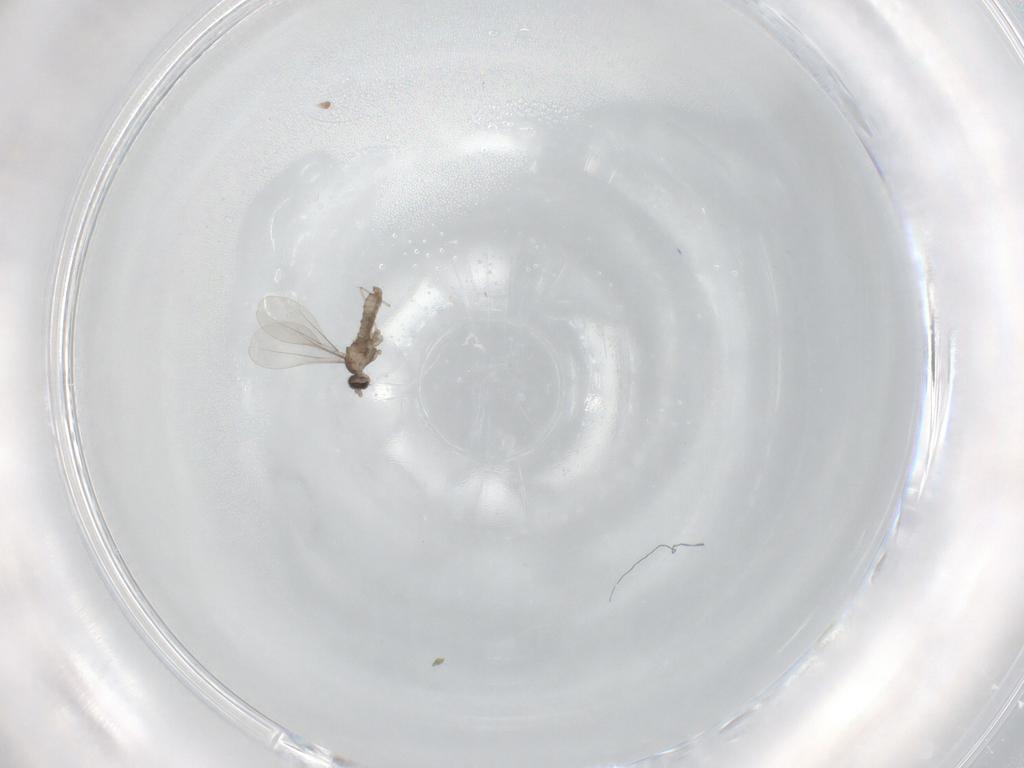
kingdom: Animalia
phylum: Arthropoda
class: Insecta
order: Diptera
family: Cecidomyiidae
